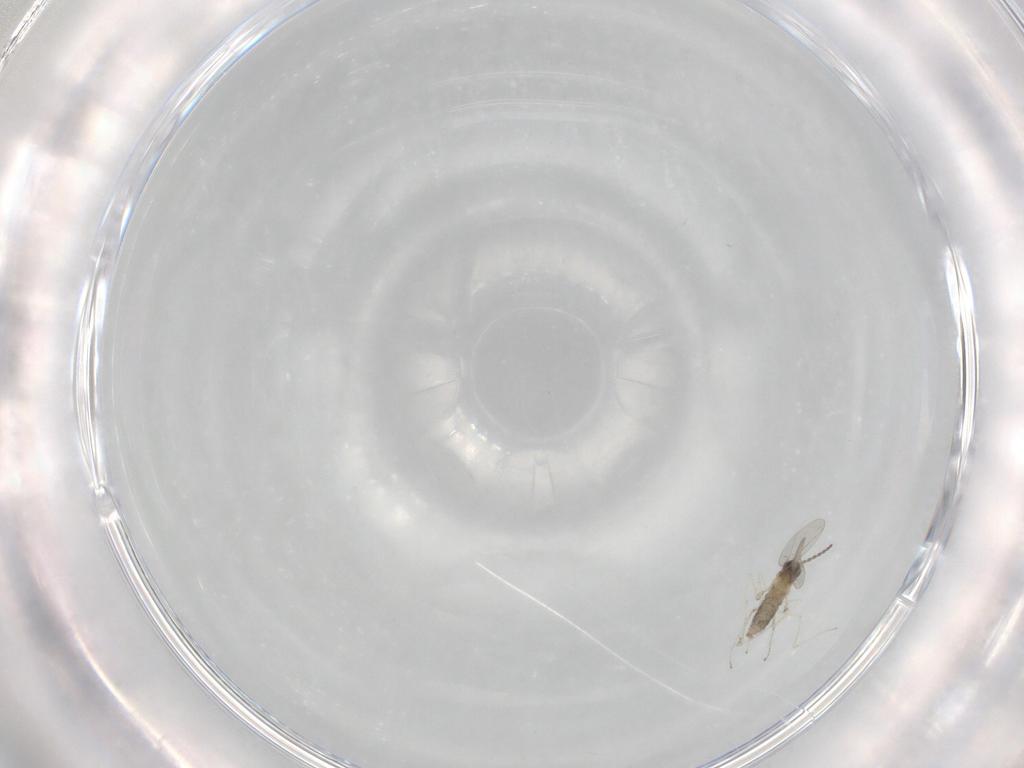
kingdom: Animalia
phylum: Arthropoda
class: Insecta
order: Diptera
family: Cecidomyiidae
